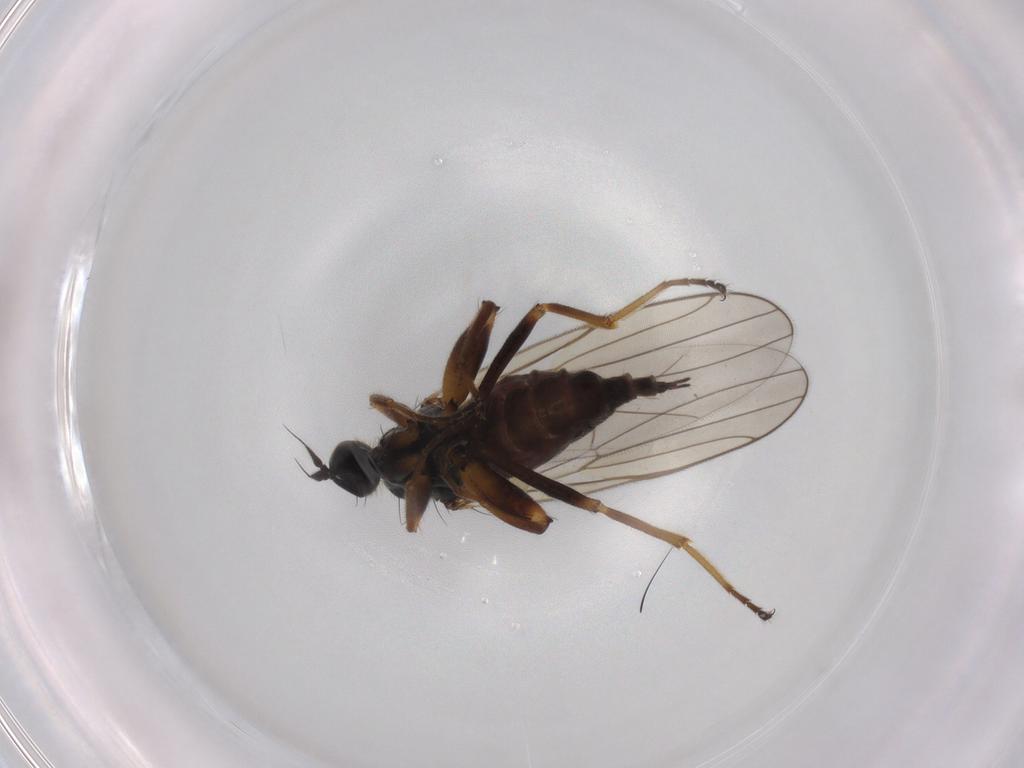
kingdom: Animalia
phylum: Arthropoda
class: Insecta
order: Diptera
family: Hybotidae
